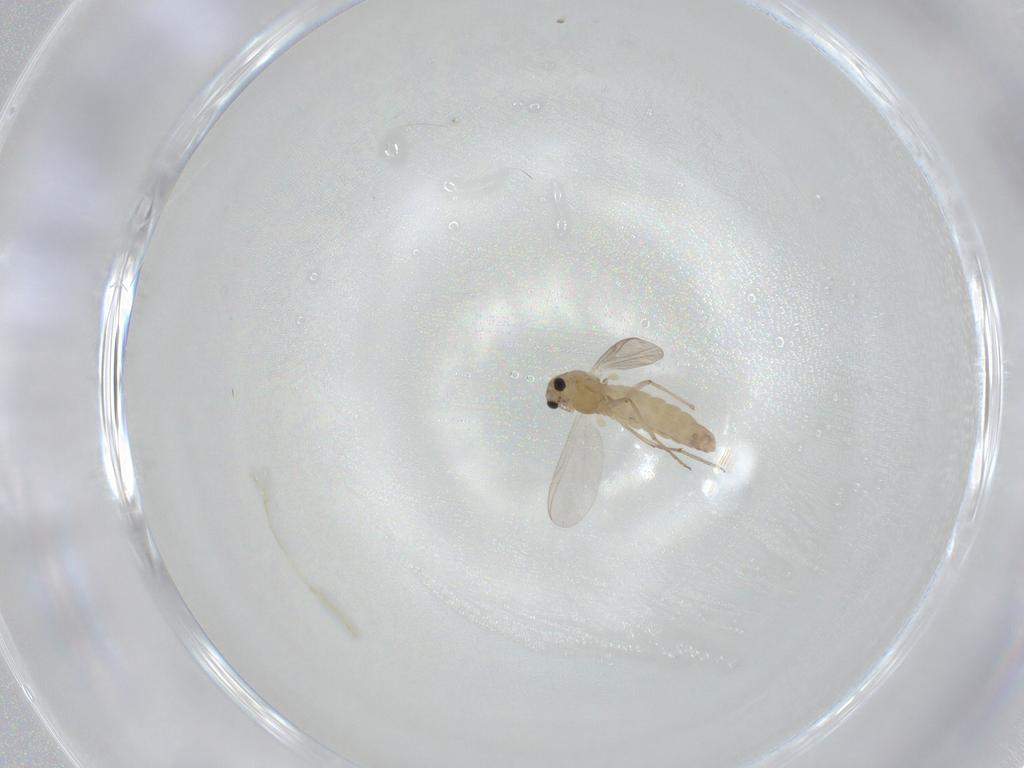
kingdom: Animalia
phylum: Arthropoda
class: Insecta
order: Diptera
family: Chironomidae
